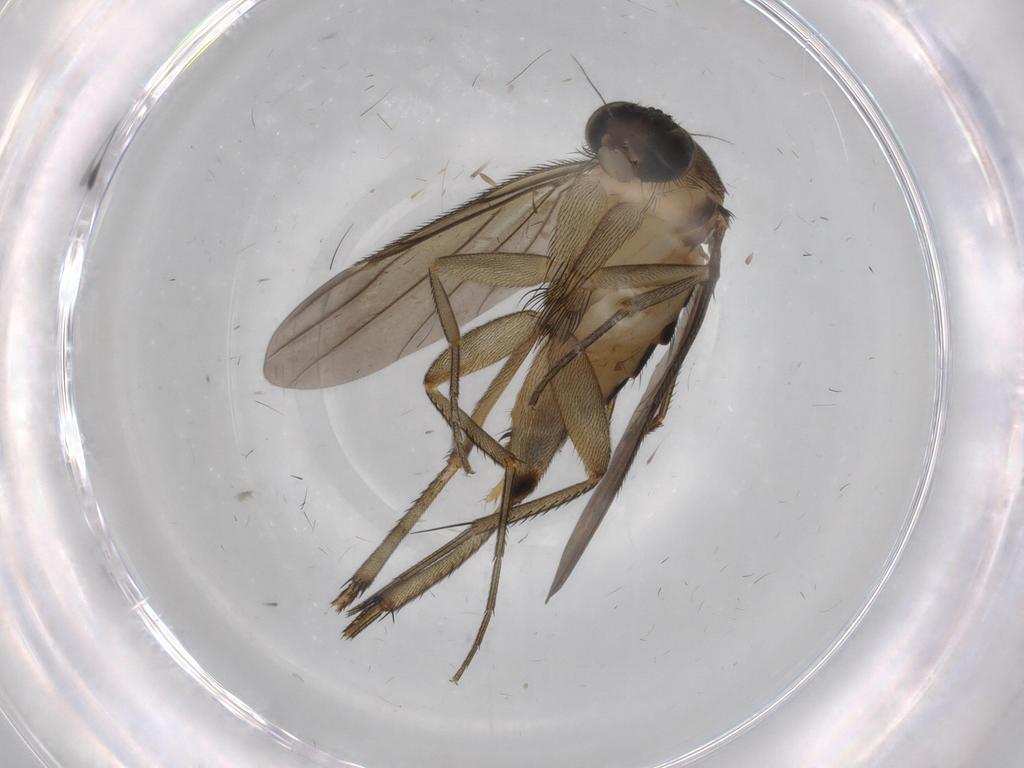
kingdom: Animalia
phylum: Arthropoda
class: Insecta
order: Diptera
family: Phoridae
